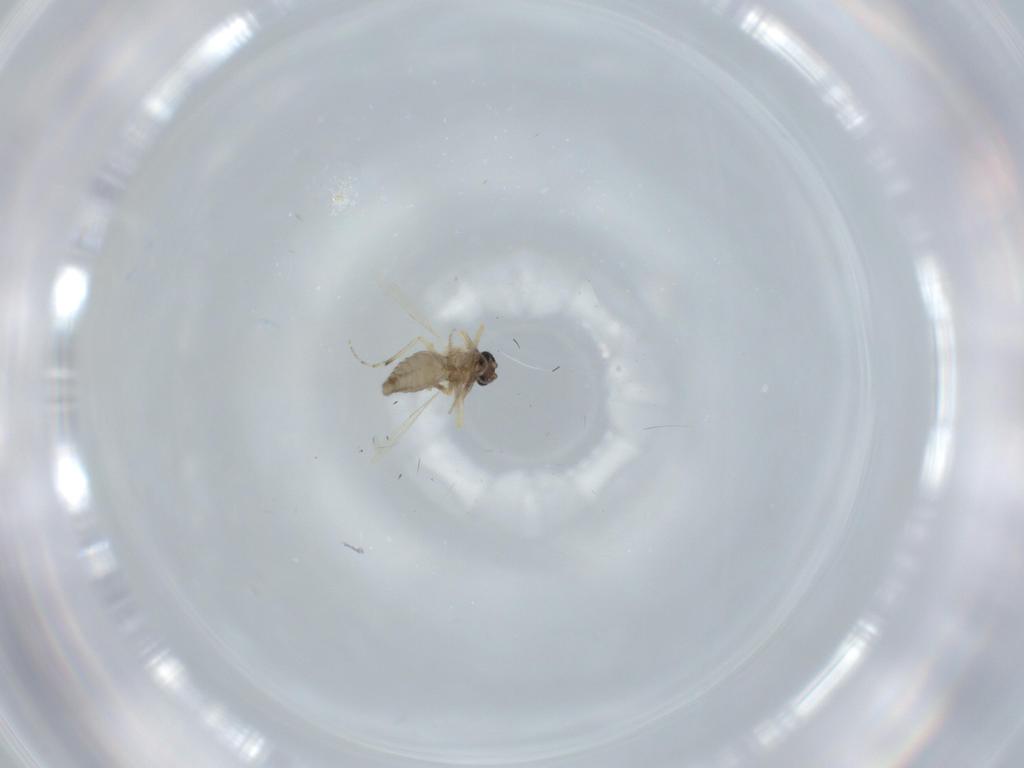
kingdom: Animalia
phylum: Arthropoda
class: Insecta
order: Diptera
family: Ceratopogonidae
